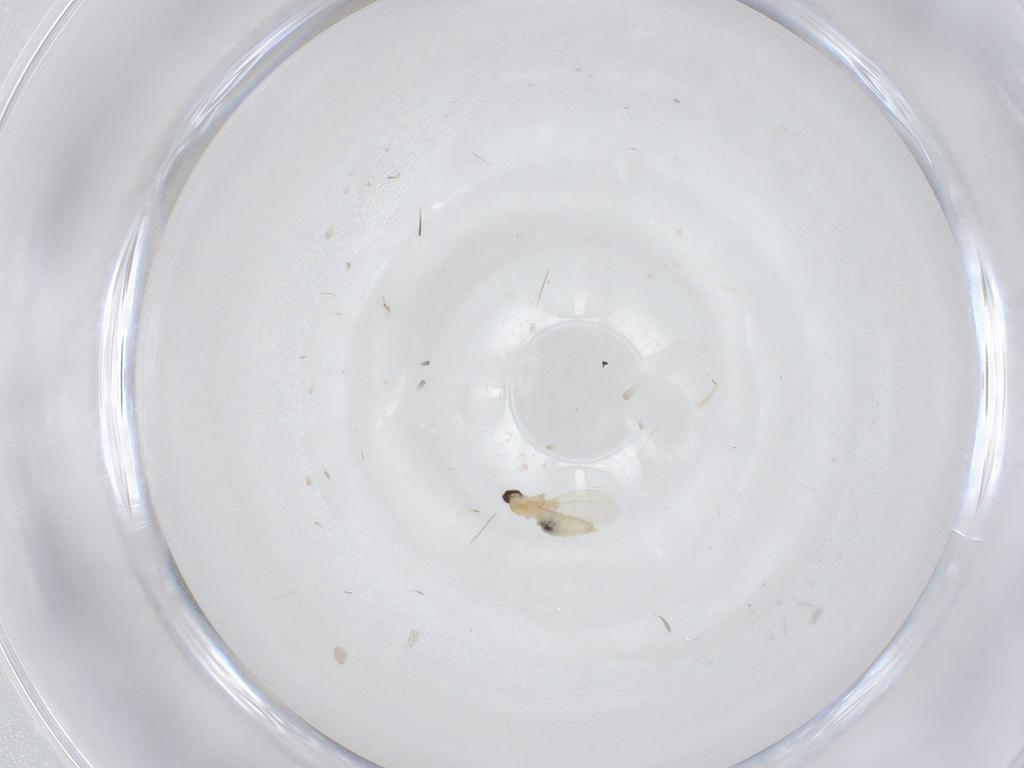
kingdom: Animalia
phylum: Arthropoda
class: Insecta
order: Diptera
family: Cecidomyiidae
